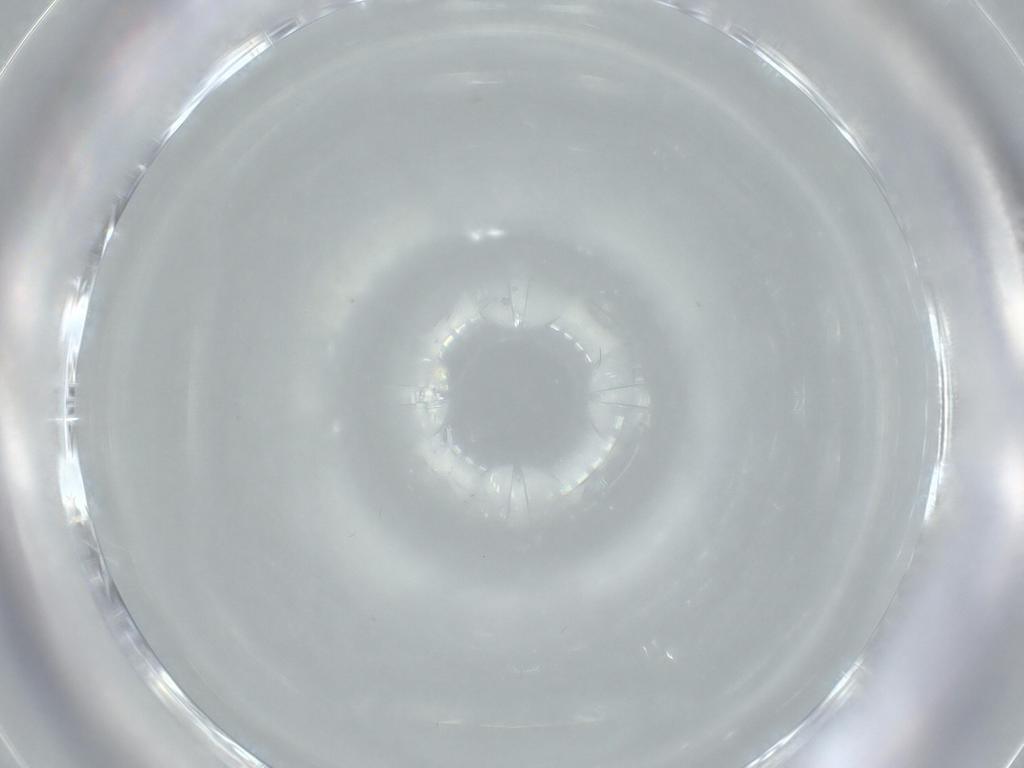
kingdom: Animalia
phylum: Arthropoda
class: Insecta
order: Diptera
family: Cecidomyiidae
